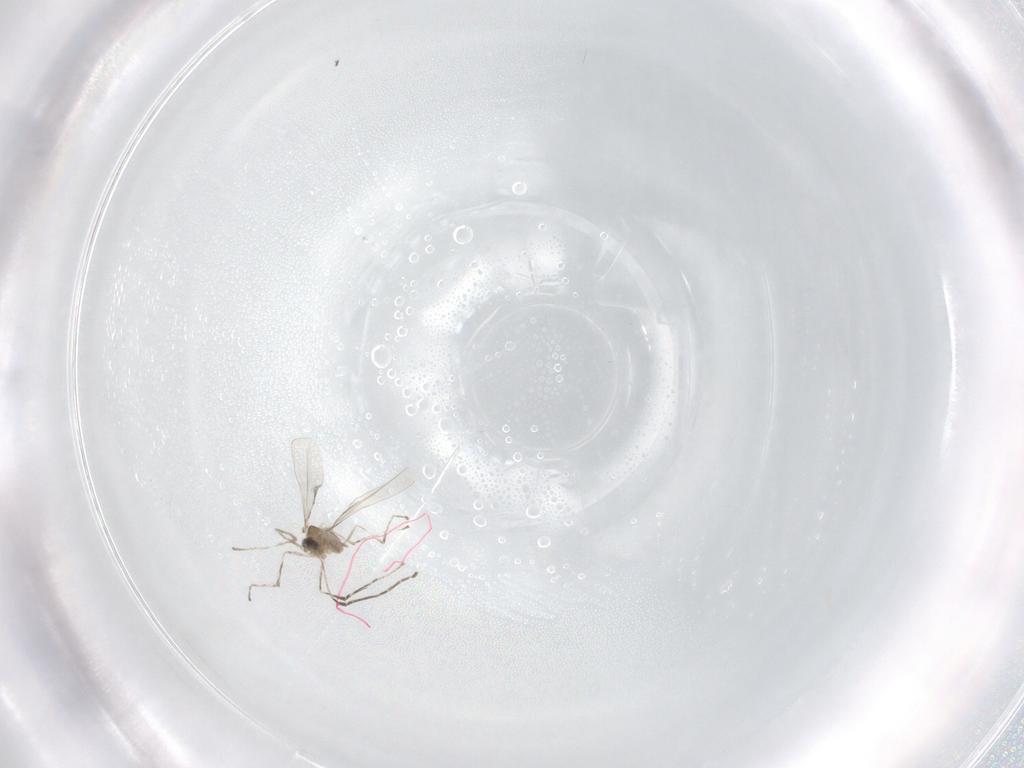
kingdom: Animalia
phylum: Arthropoda
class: Insecta
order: Diptera
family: Cecidomyiidae
